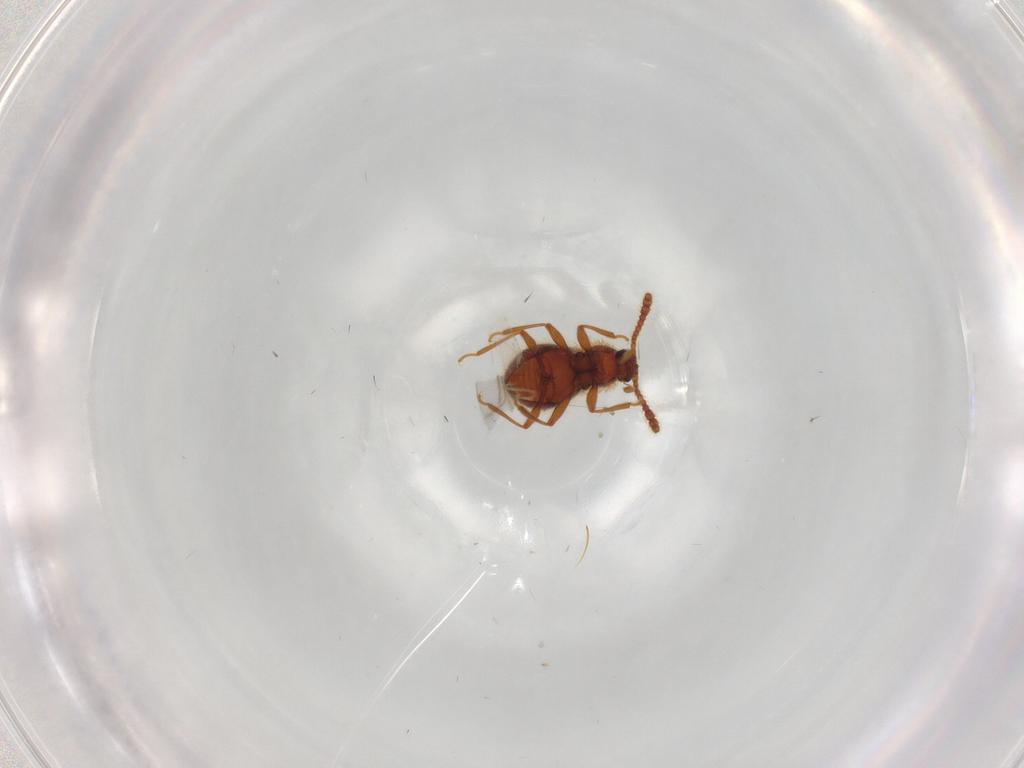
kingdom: Animalia
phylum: Arthropoda
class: Insecta
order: Coleoptera
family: Staphylinidae
